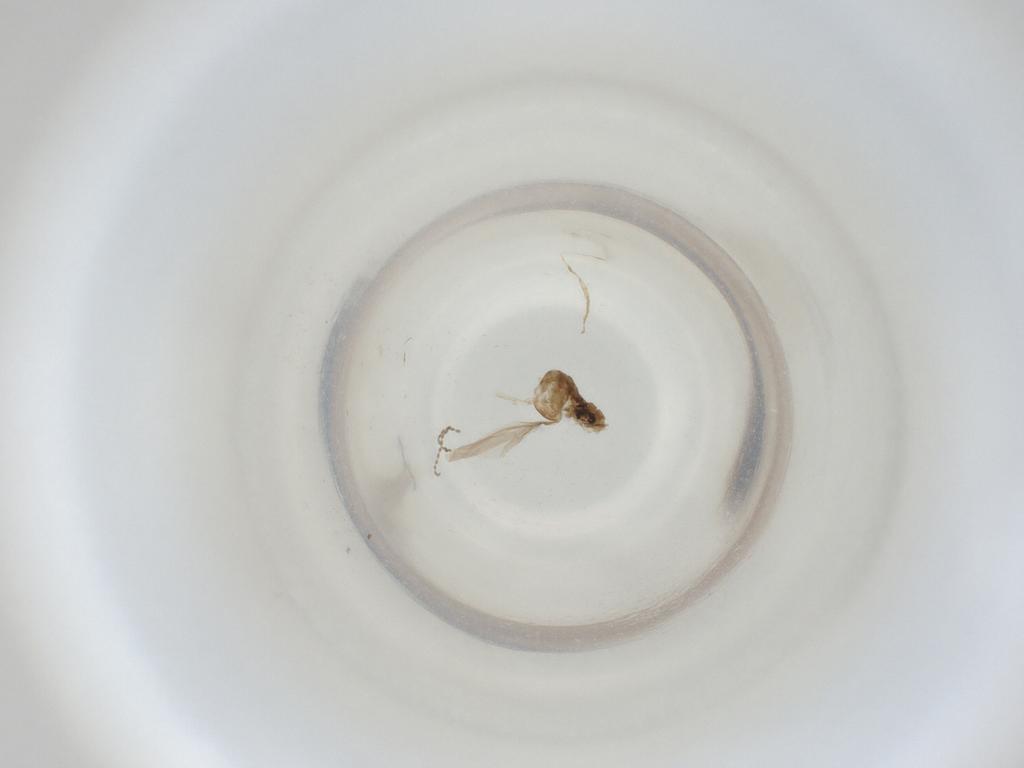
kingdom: Animalia
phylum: Arthropoda
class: Insecta
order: Diptera
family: Cecidomyiidae
